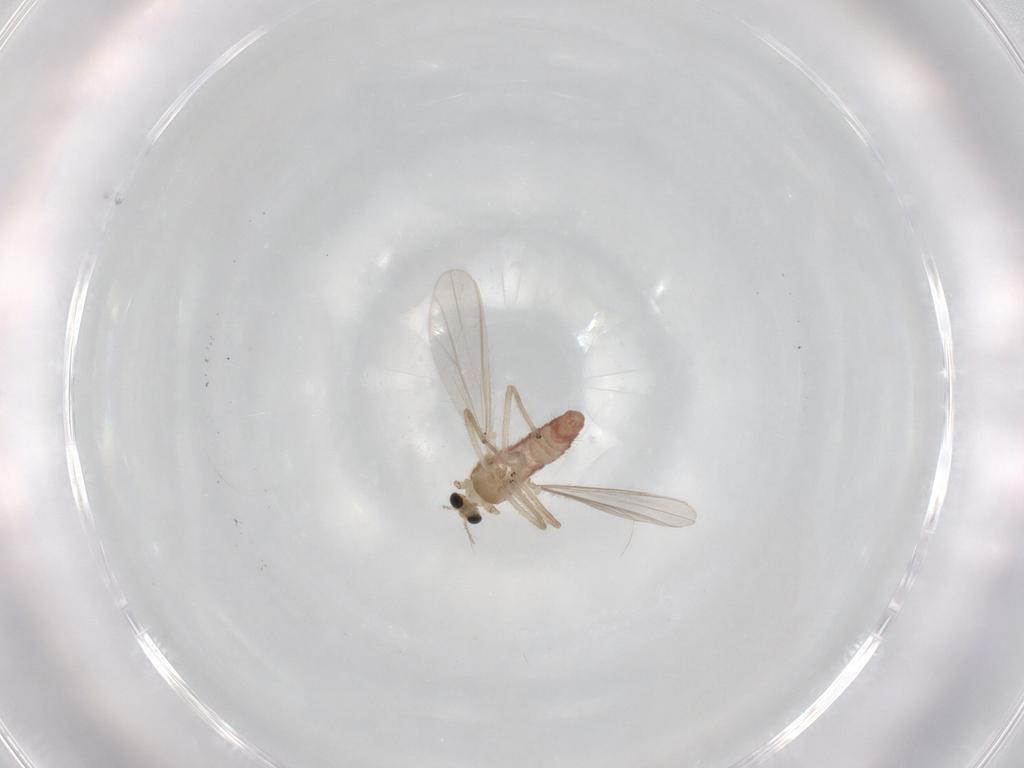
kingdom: Animalia
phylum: Arthropoda
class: Insecta
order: Diptera
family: Chironomidae
